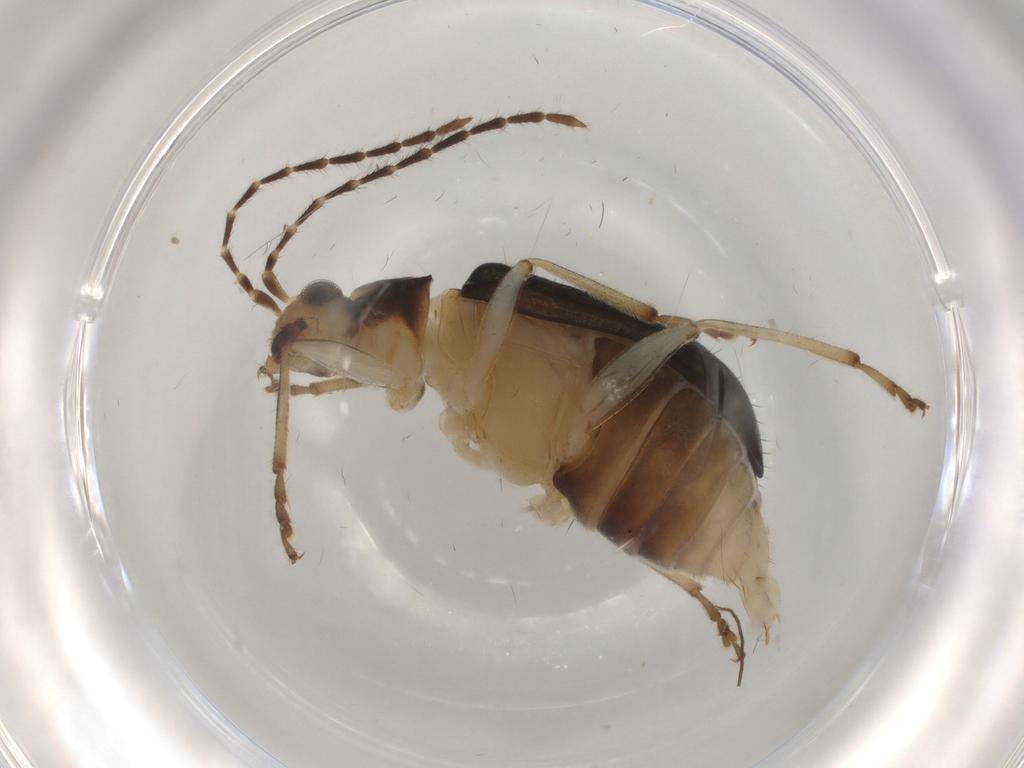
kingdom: Animalia
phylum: Arthropoda
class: Insecta
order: Coleoptera
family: Chrysomelidae
